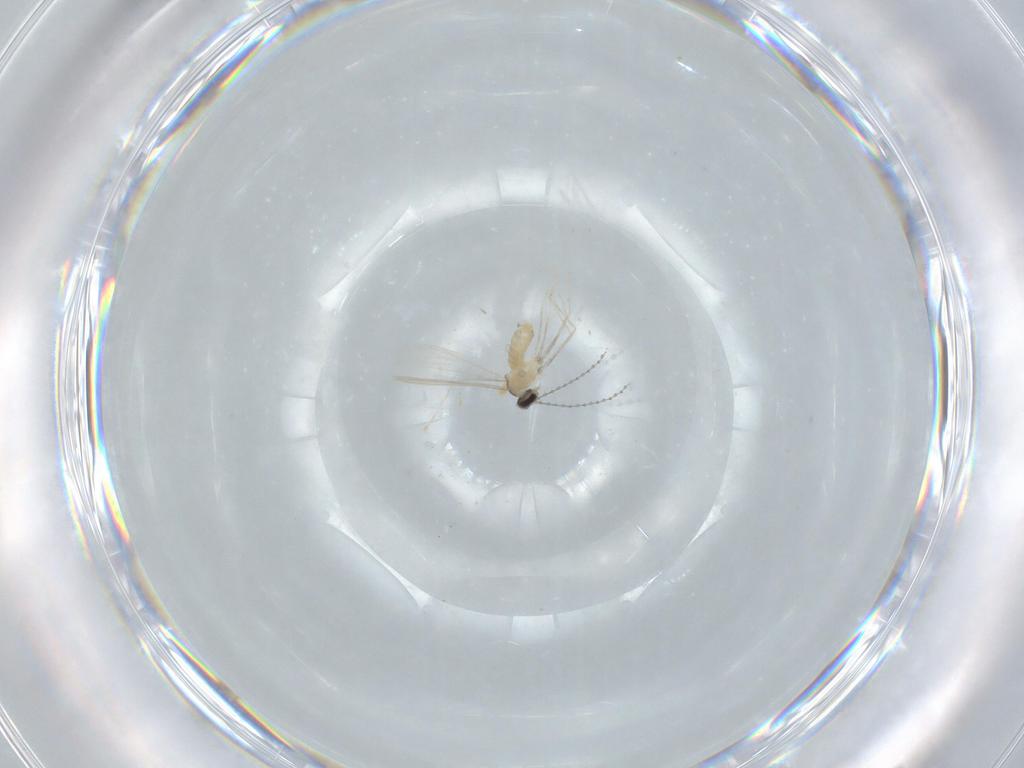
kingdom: Animalia
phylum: Arthropoda
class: Insecta
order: Diptera
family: Cecidomyiidae
